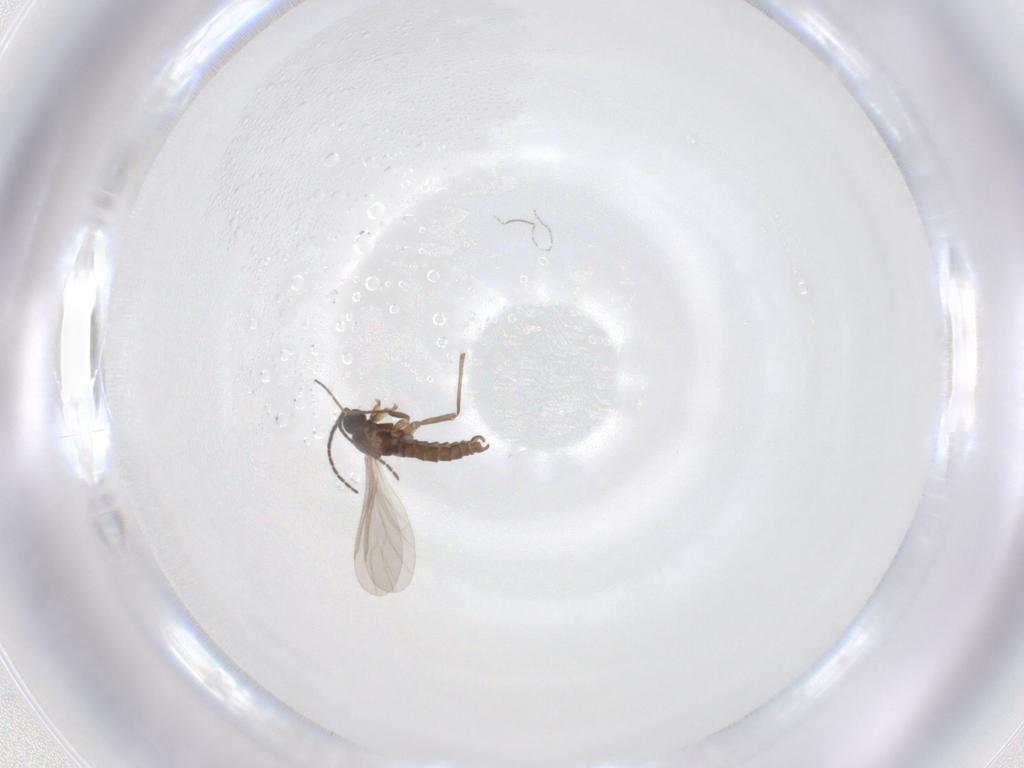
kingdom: Animalia
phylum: Arthropoda
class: Insecta
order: Diptera
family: Sciaridae
